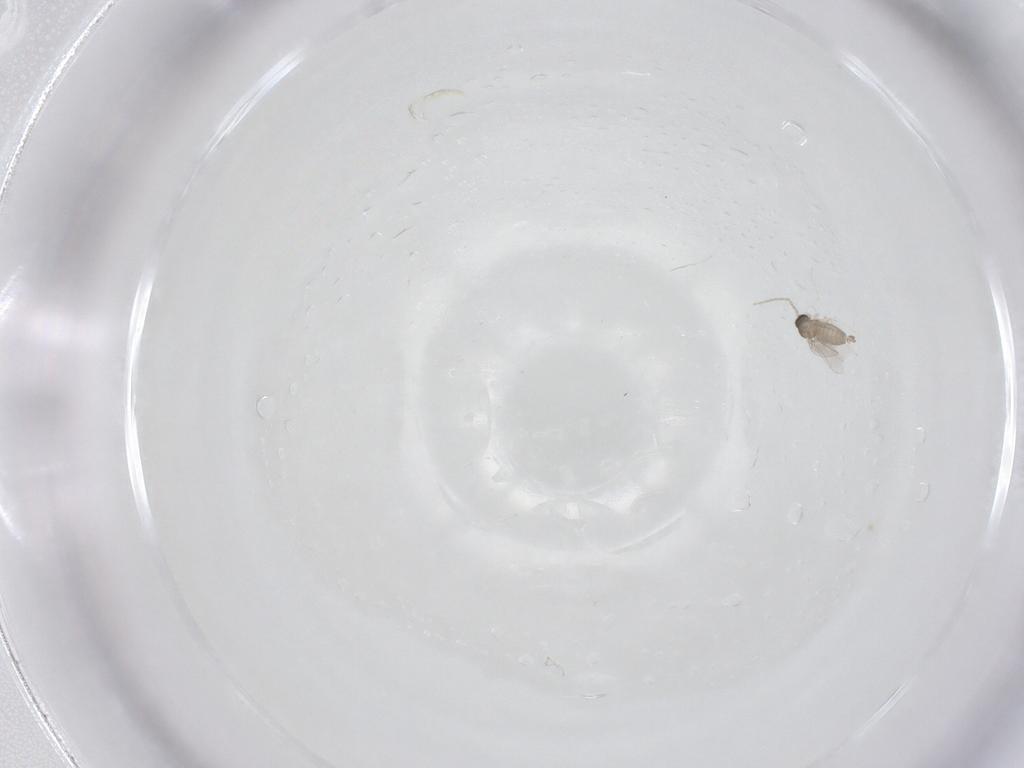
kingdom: Animalia
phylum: Arthropoda
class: Insecta
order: Diptera
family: Cecidomyiidae
